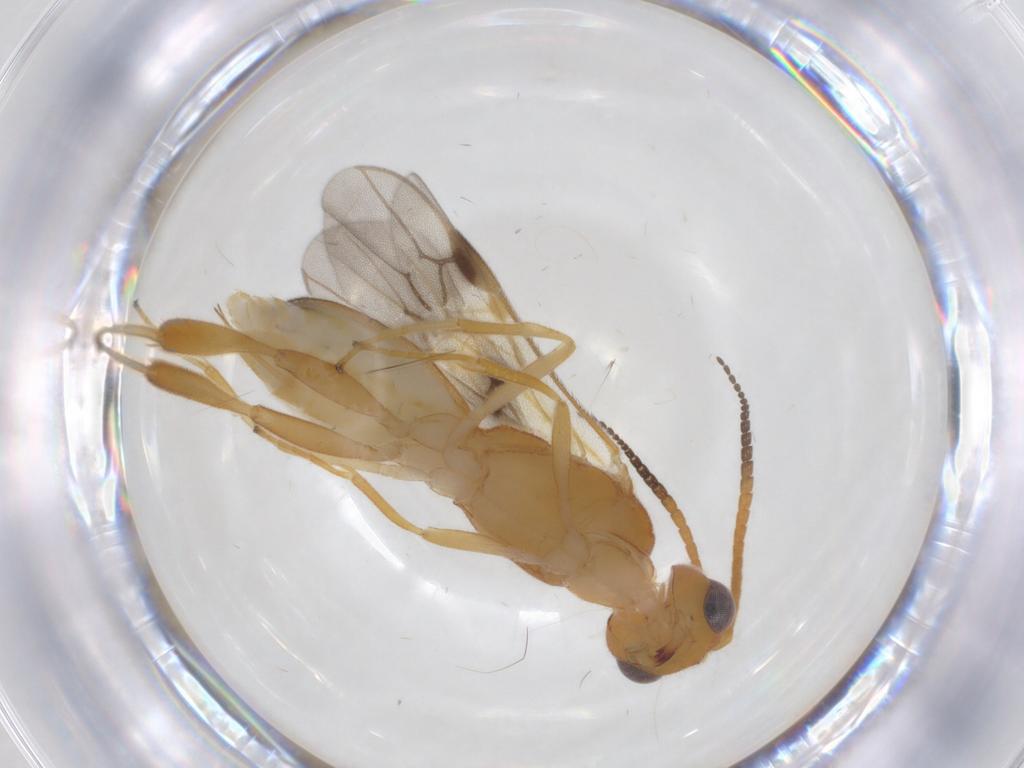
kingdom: Animalia
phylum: Arthropoda
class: Insecta
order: Hymenoptera
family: Braconidae
